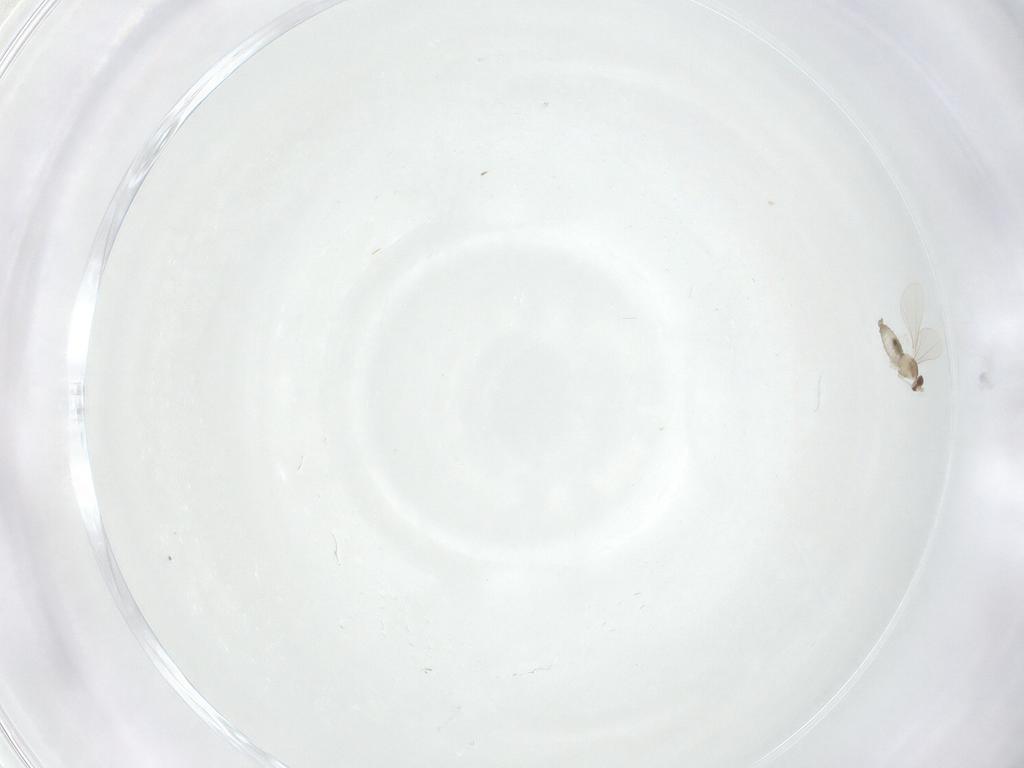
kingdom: Animalia
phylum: Arthropoda
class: Insecta
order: Diptera
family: Cecidomyiidae
